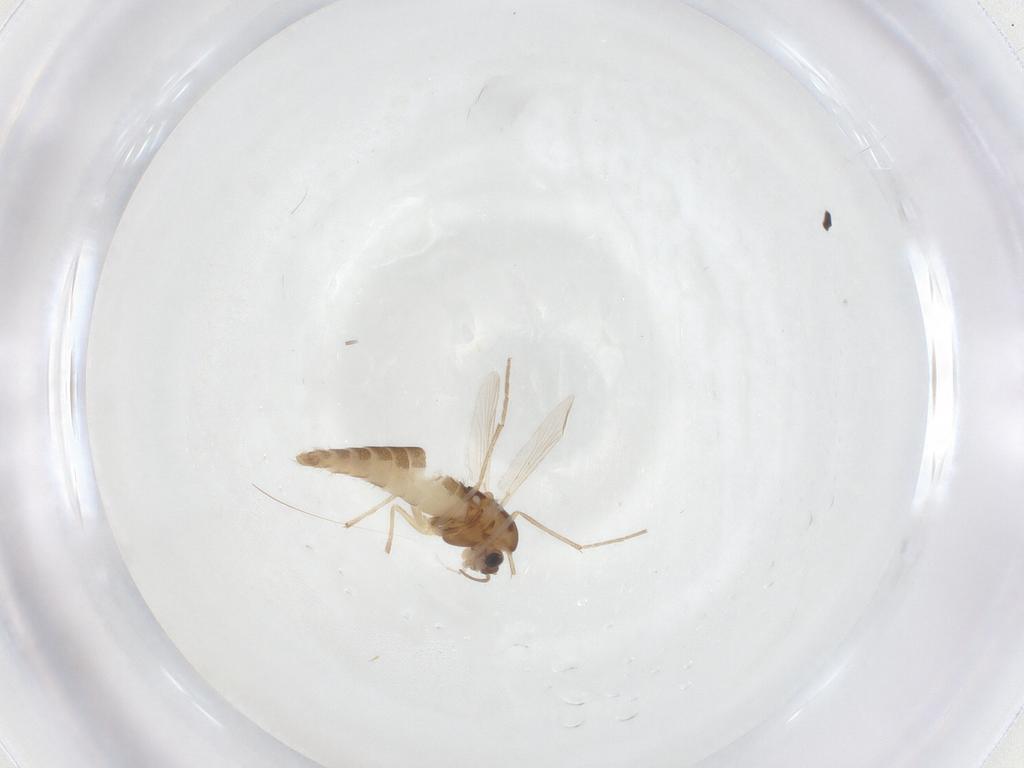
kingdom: Animalia
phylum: Arthropoda
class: Insecta
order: Diptera
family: Chironomidae
